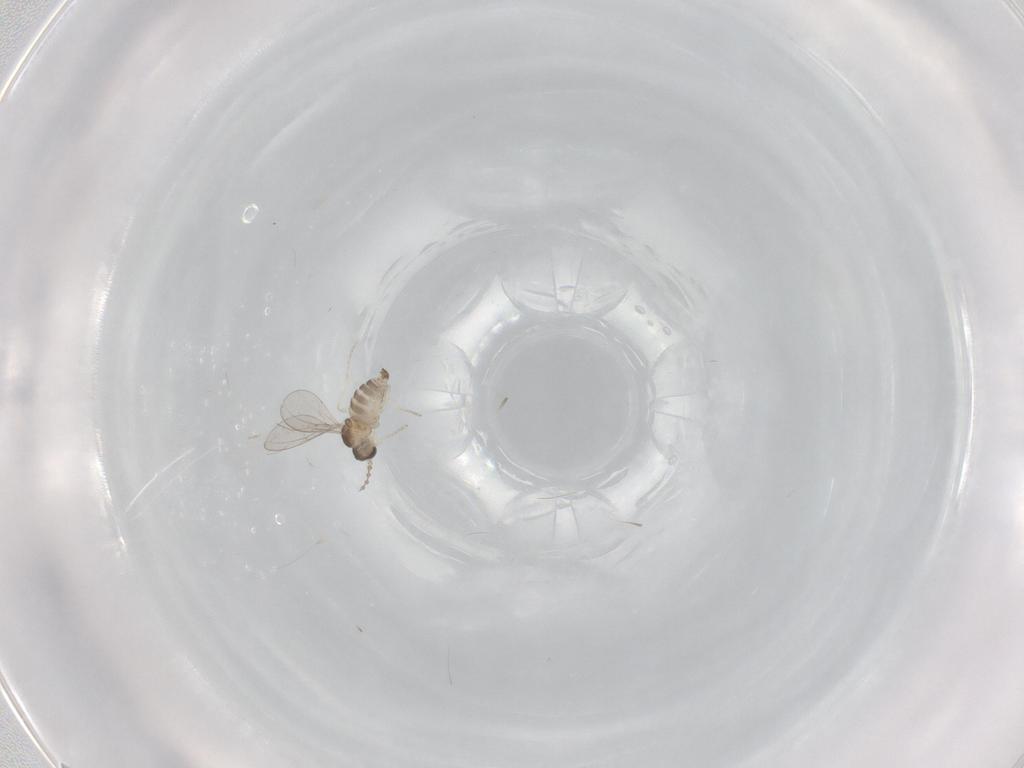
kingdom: Animalia
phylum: Arthropoda
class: Insecta
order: Diptera
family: Cecidomyiidae
